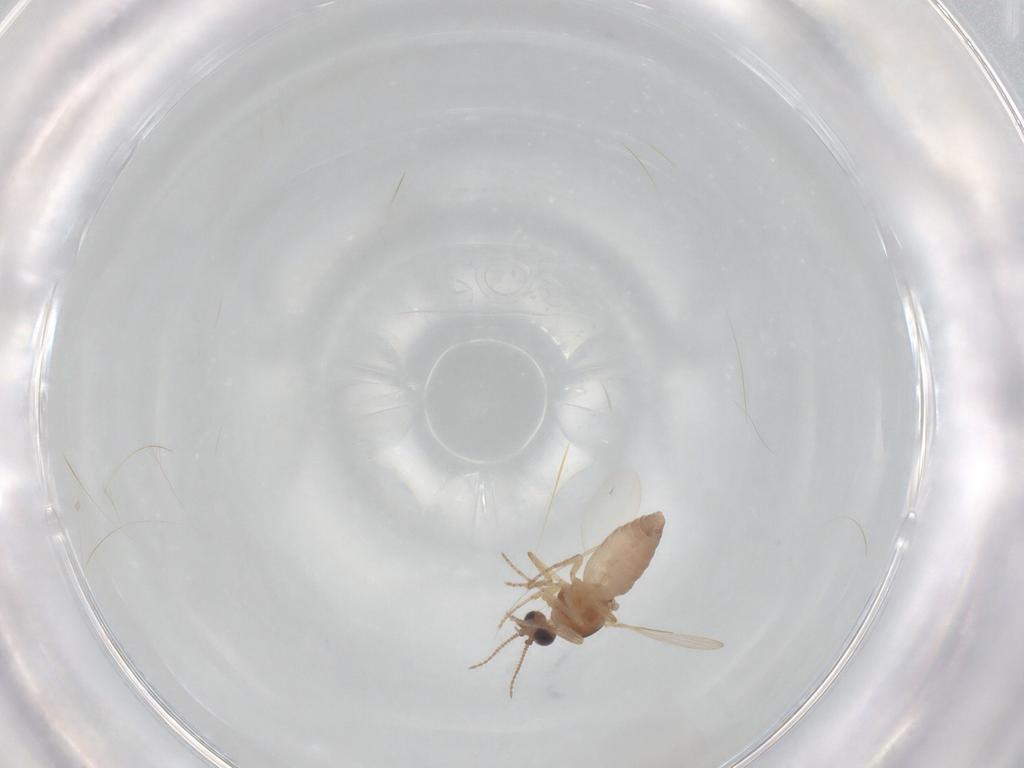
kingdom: Animalia
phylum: Arthropoda
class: Insecta
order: Diptera
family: Ceratopogonidae
